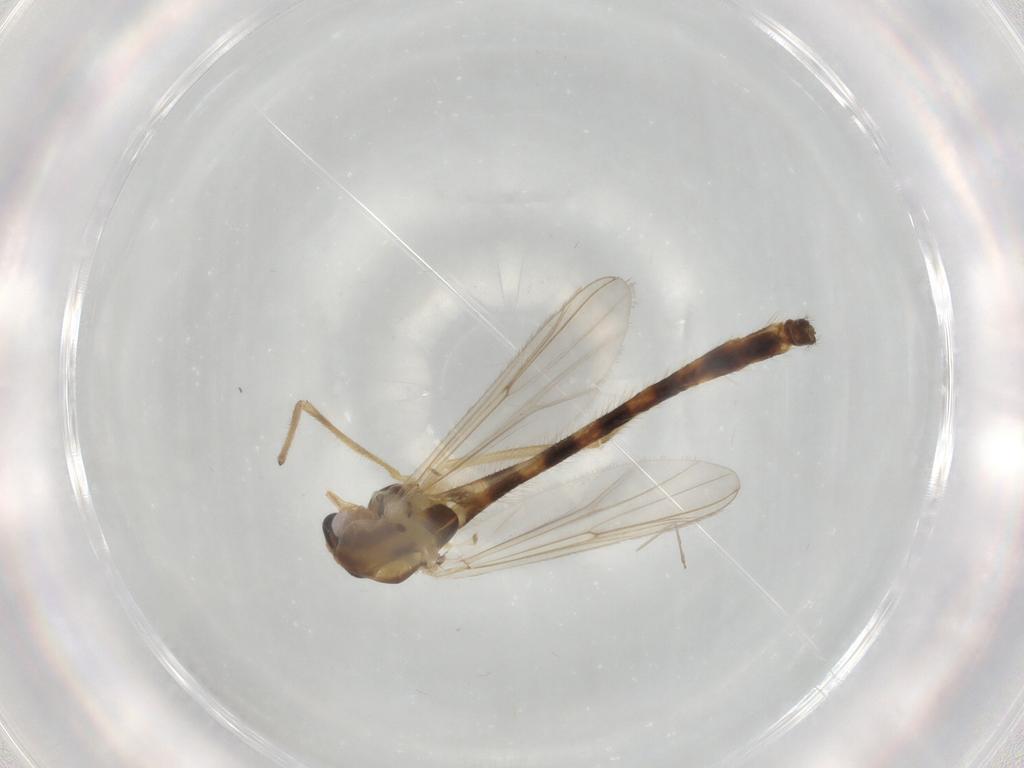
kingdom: Animalia
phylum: Arthropoda
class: Insecta
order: Diptera
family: Chironomidae
